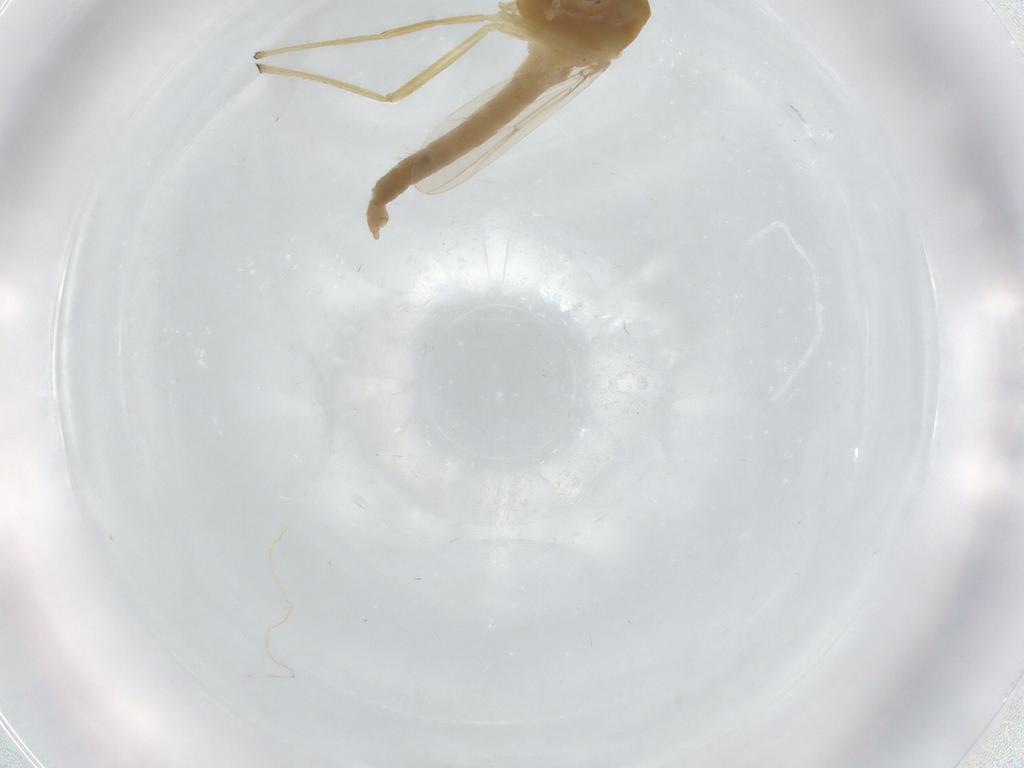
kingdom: Animalia
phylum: Arthropoda
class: Insecta
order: Diptera
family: Chironomidae
